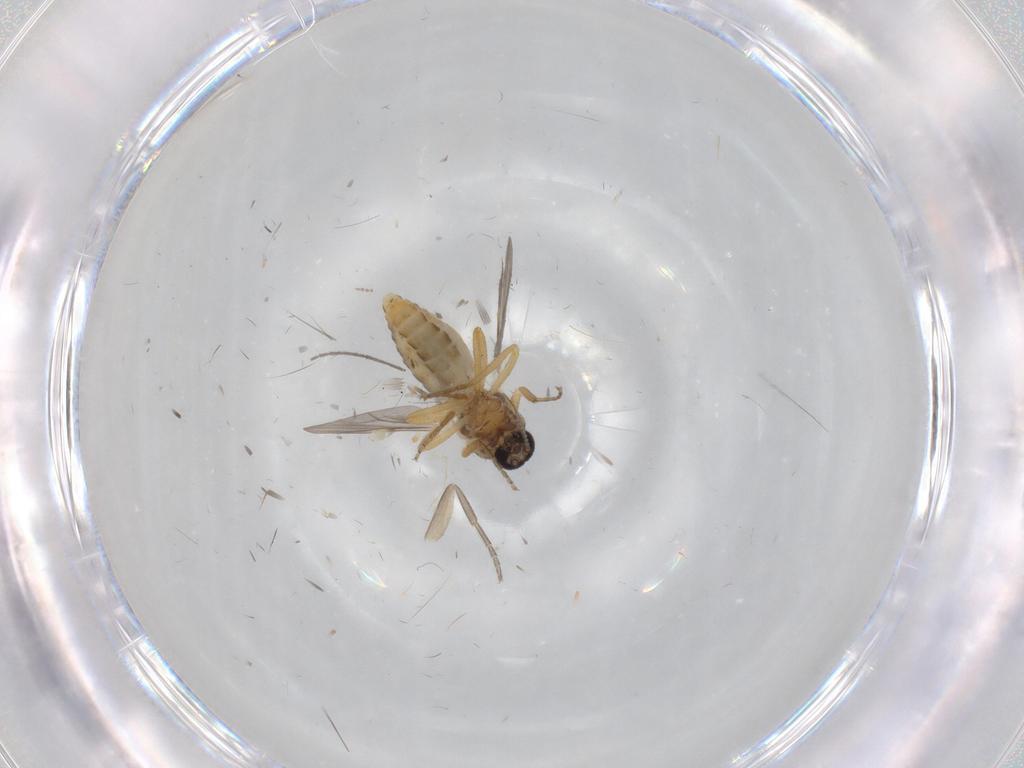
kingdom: Animalia
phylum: Arthropoda
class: Insecta
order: Diptera
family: Ceratopogonidae
